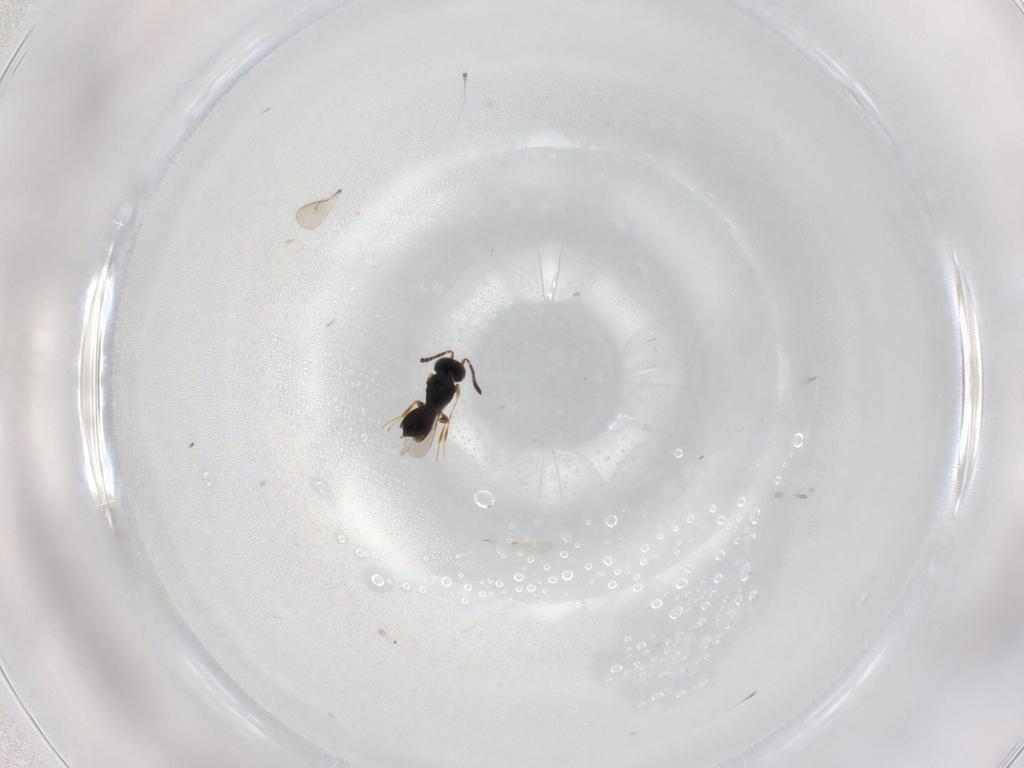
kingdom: Animalia
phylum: Arthropoda
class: Insecta
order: Hymenoptera
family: Scelionidae
